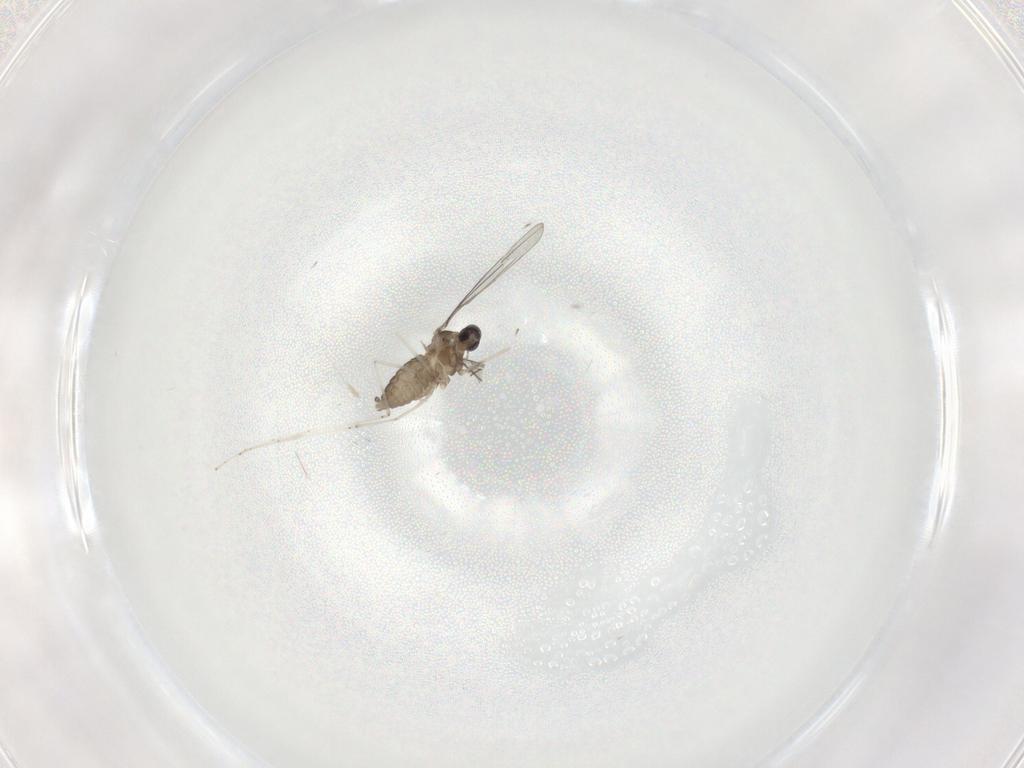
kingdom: Animalia
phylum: Arthropoda
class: Insecta
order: Diptera
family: Cecidomyiidae
